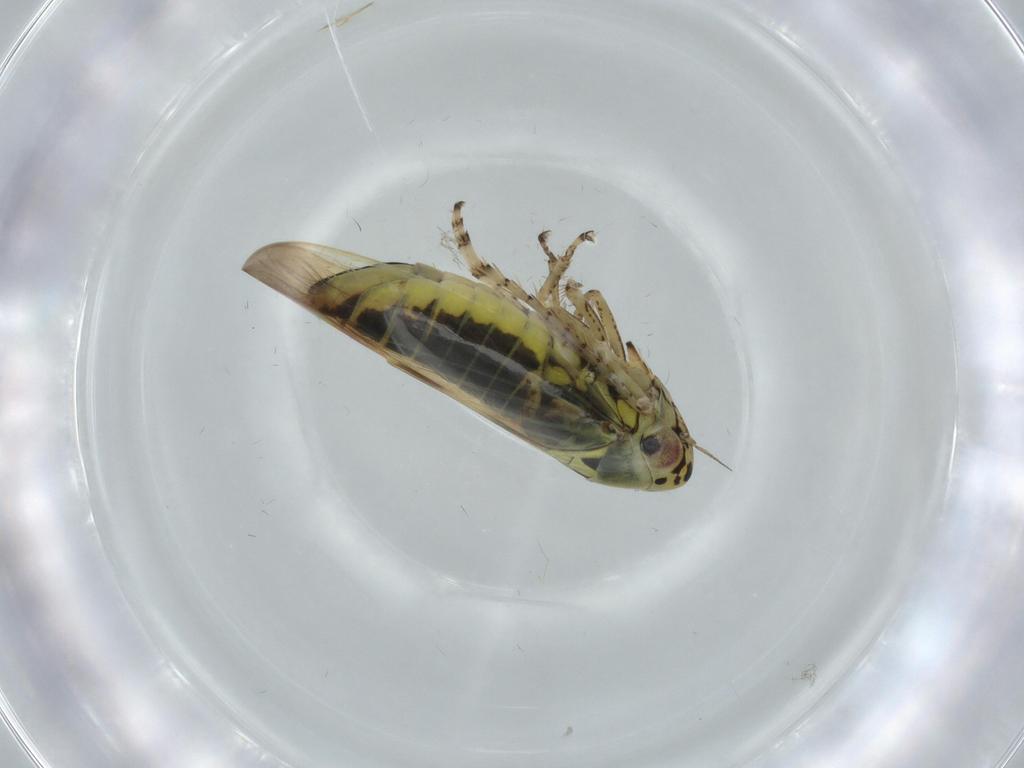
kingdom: Animalia
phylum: Arthropoda
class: Insecta
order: Hemiptera
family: Cicadellidae
